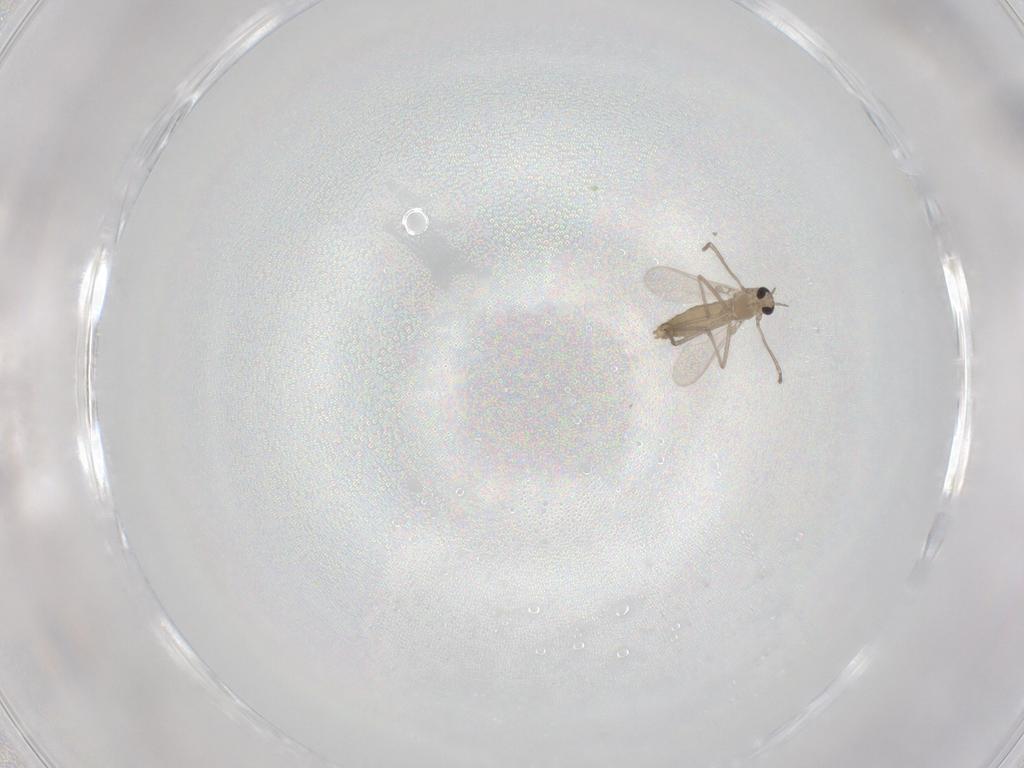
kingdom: Animalia
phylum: Arthropoda
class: Insecta
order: Diptera
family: Chironomidae
